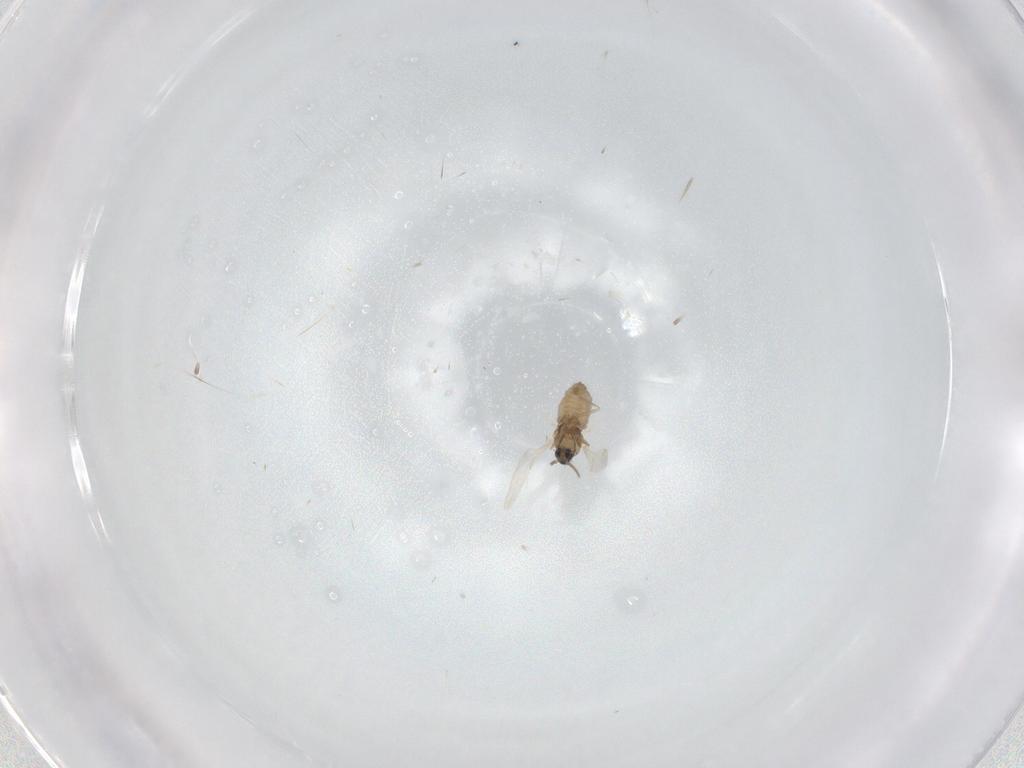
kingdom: Animalia
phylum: Arthropoda
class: Insecta
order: Diptera
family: Cecidomyiidae
